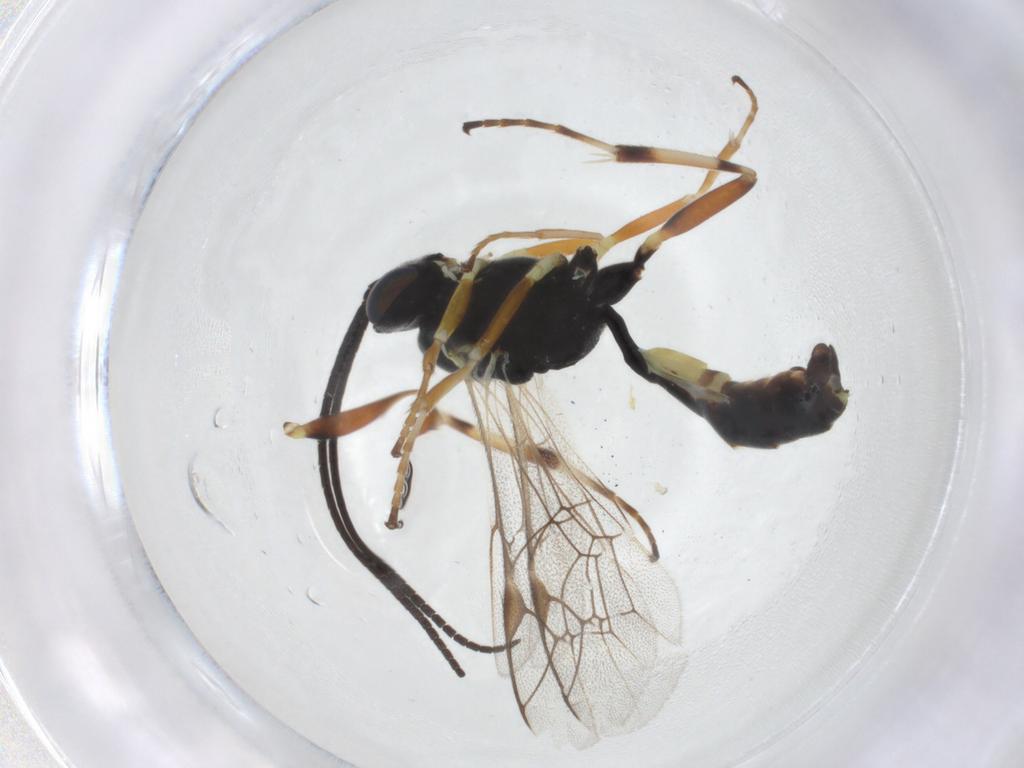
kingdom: Animalia
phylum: Arthropoda
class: Insecta
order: Hymenoptera
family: Ichneumonidae
